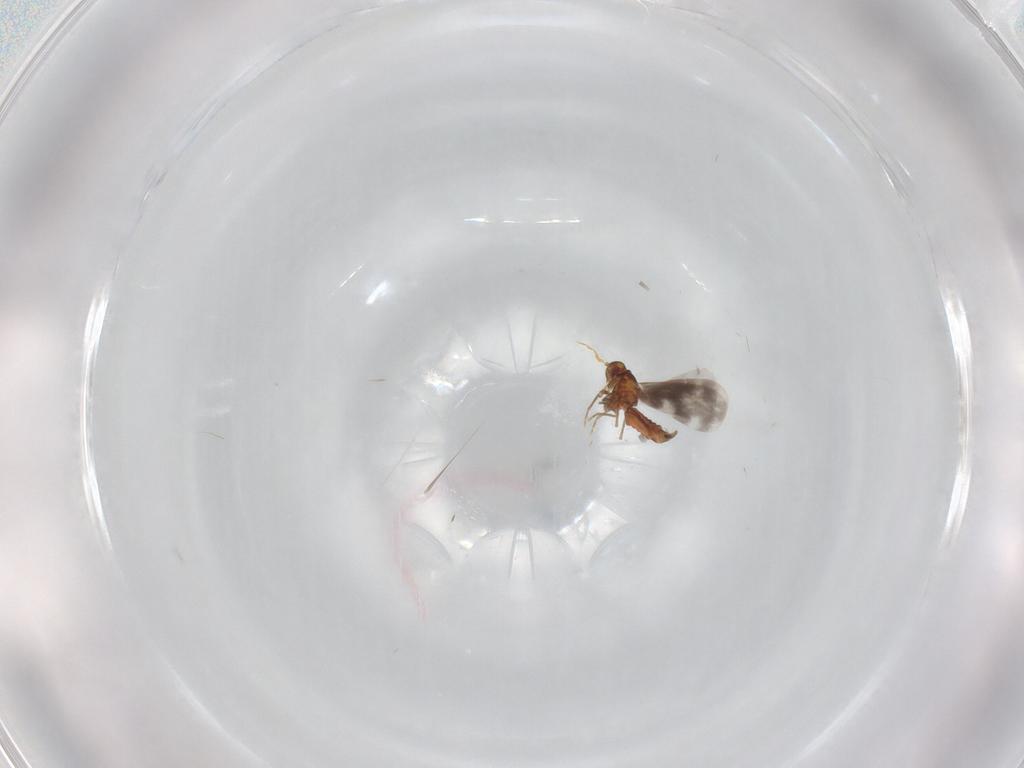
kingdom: Animalia
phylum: Arthropoda
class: Insecta
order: Hemiptera
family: Aleyrodidae
